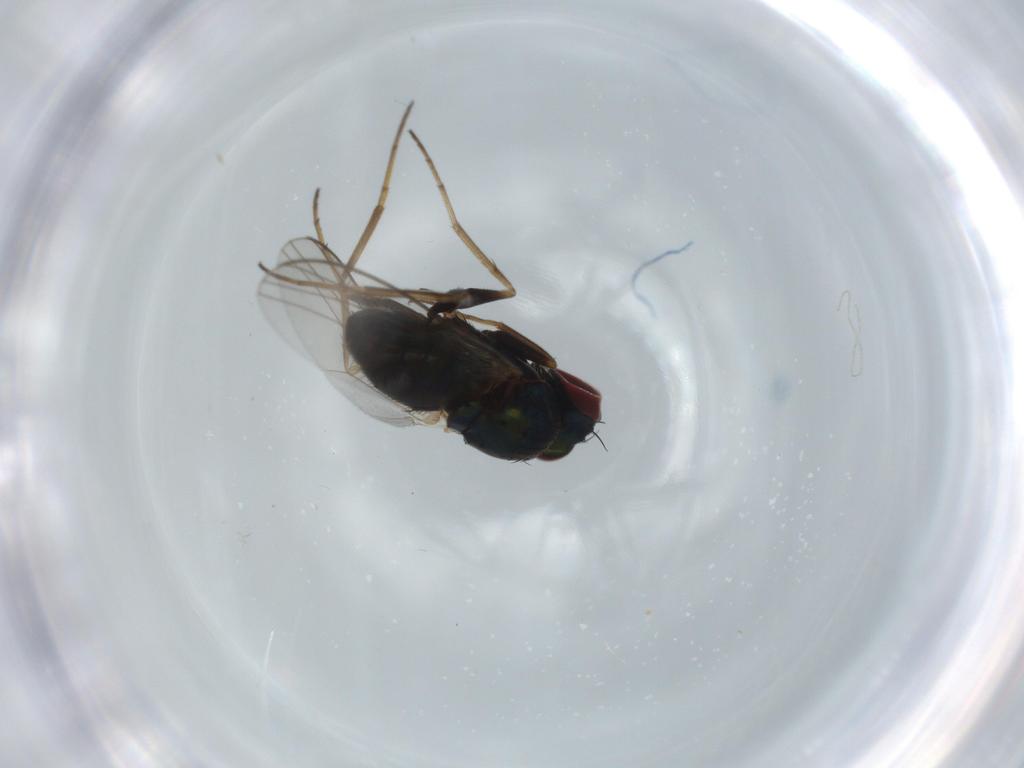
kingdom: Animalia
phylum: Arthropoda
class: Insecta
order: Diptera
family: Dolichopodidae
